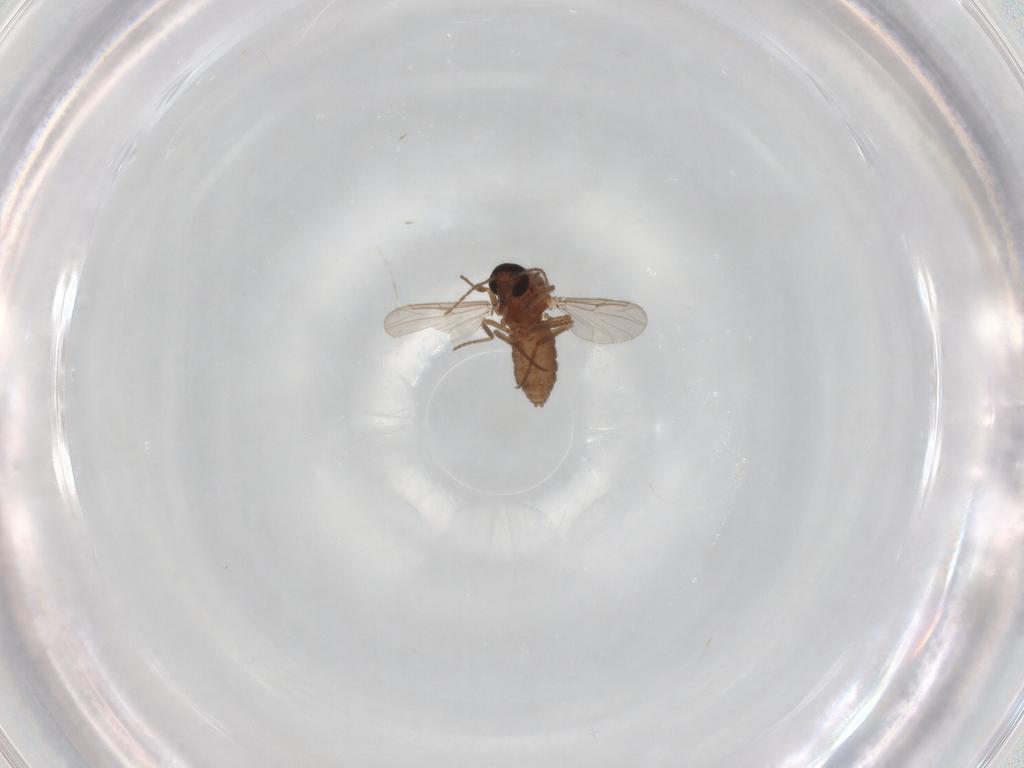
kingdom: Animalia
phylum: Arthropoda
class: Insecta
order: Diptera
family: Ceratopogonidae
